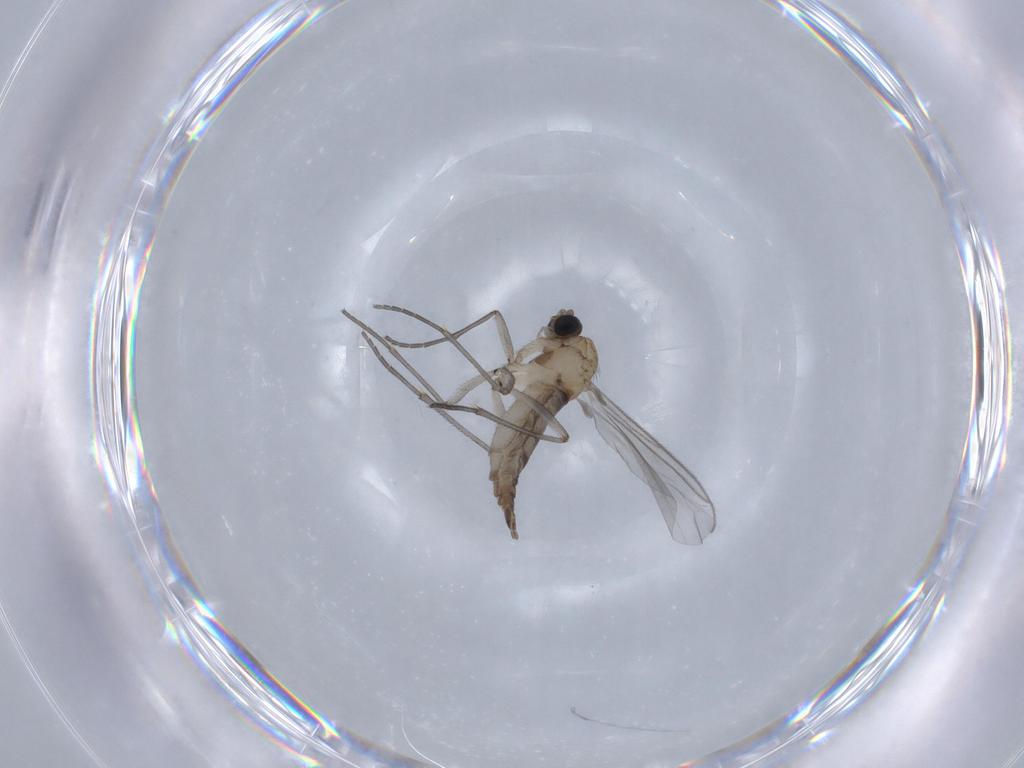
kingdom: Animalia
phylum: Arthropoda
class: Insecta
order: Diptera
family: Sciaridae
